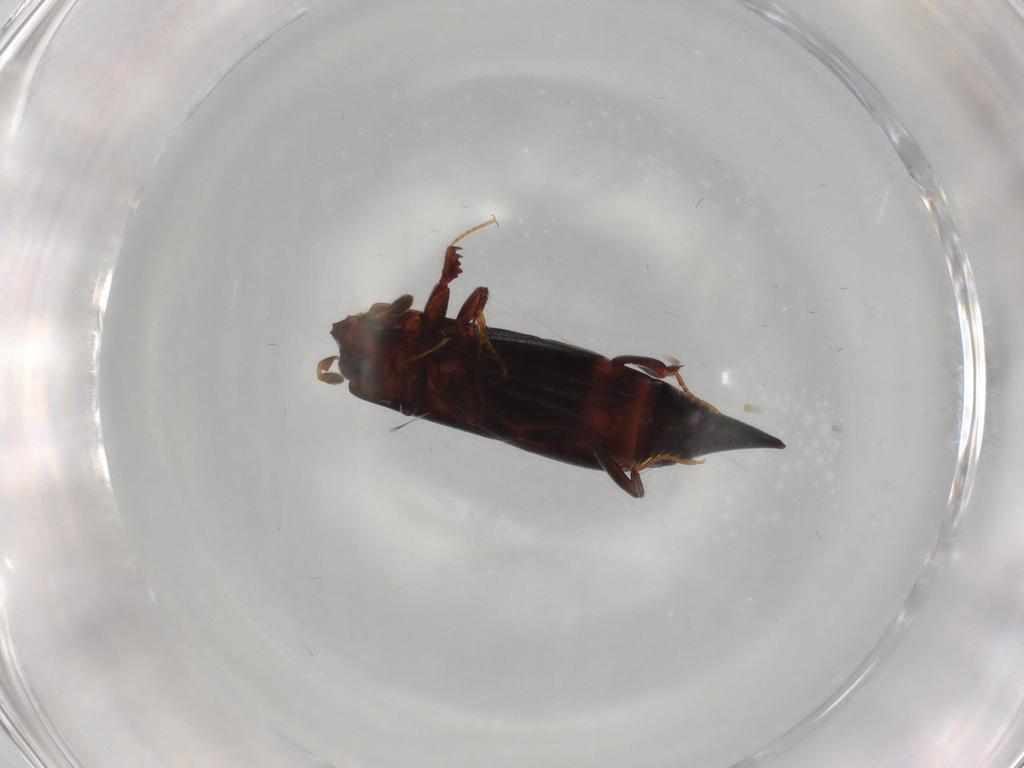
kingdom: Animalia
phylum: Arthropoda
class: Insecta
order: Coleoptera
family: Histeridae
